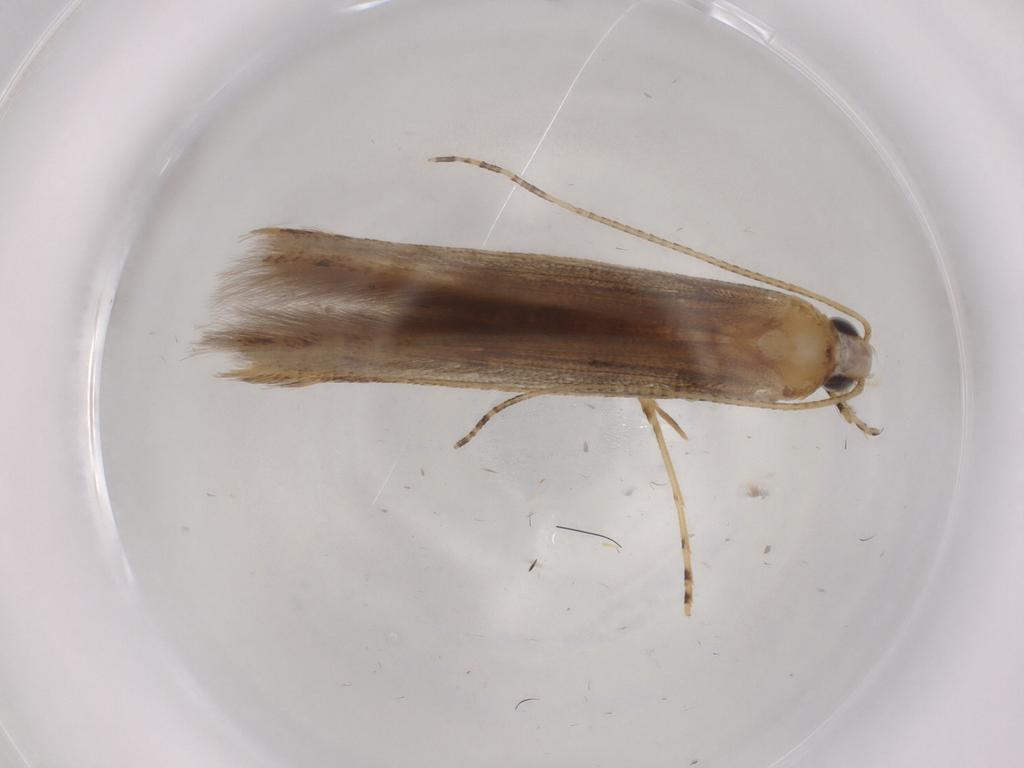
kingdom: Animalia
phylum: Arthropoda
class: Insecta
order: Lepidoptera
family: Batrachedridae
